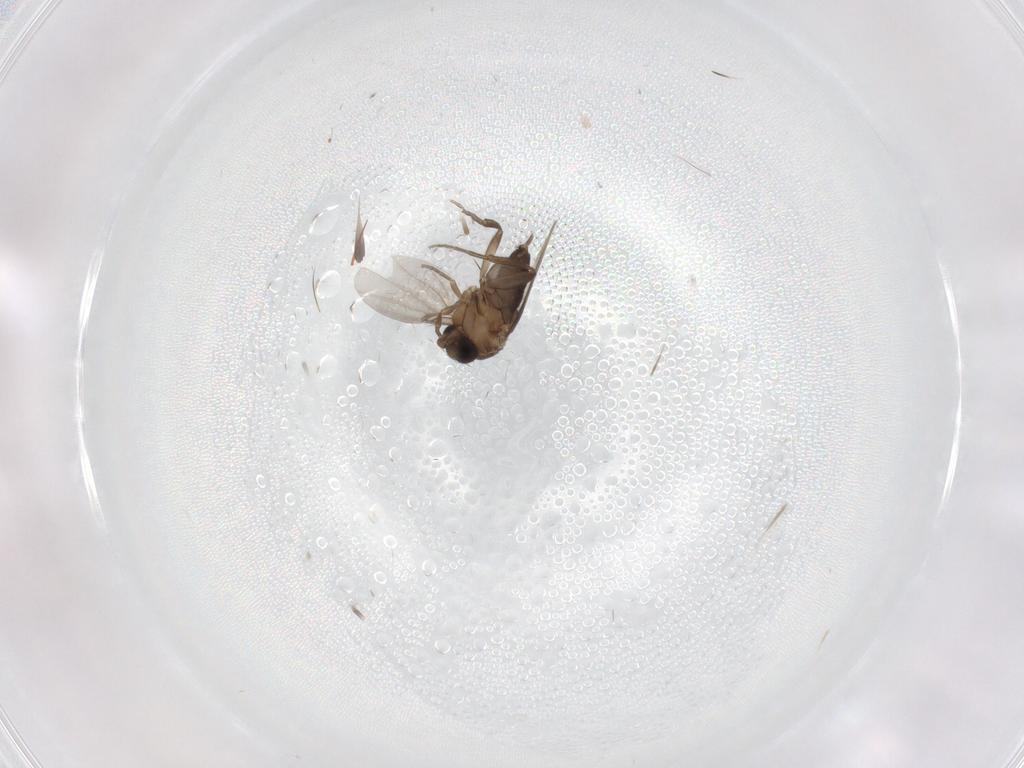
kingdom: Animalia
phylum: Arthropoda
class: Insecta
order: Diptera
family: Phoridae
